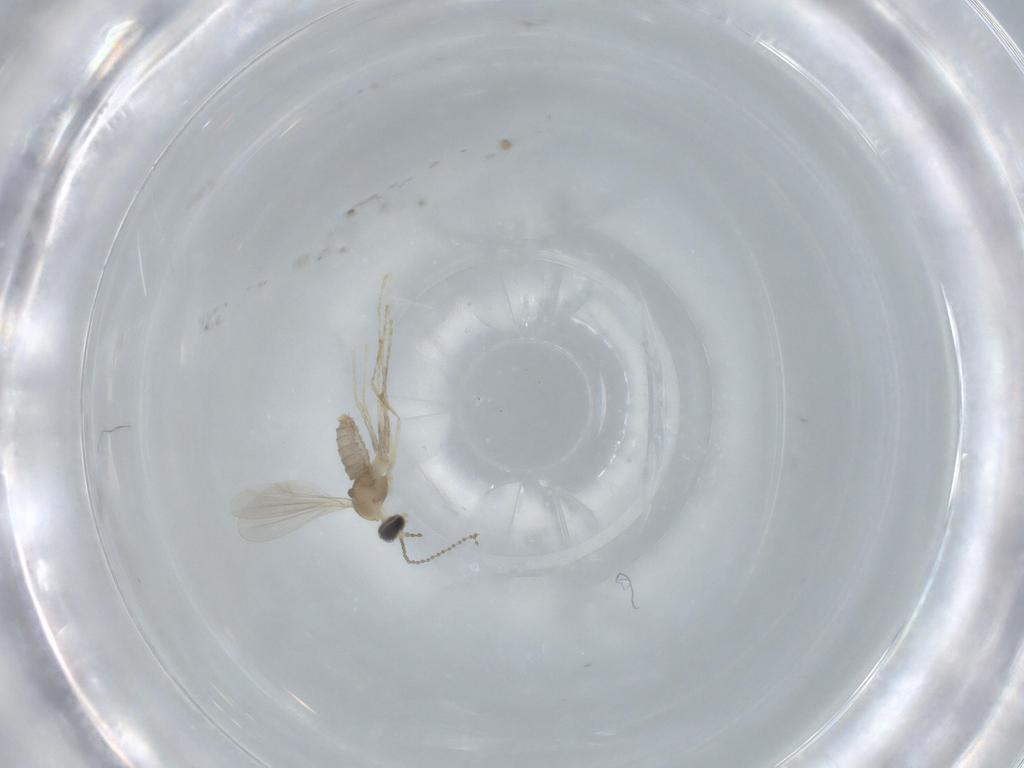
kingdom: Animalia
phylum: Arthropoda
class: Insecta
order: Diptera
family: Cecidomyiidae
